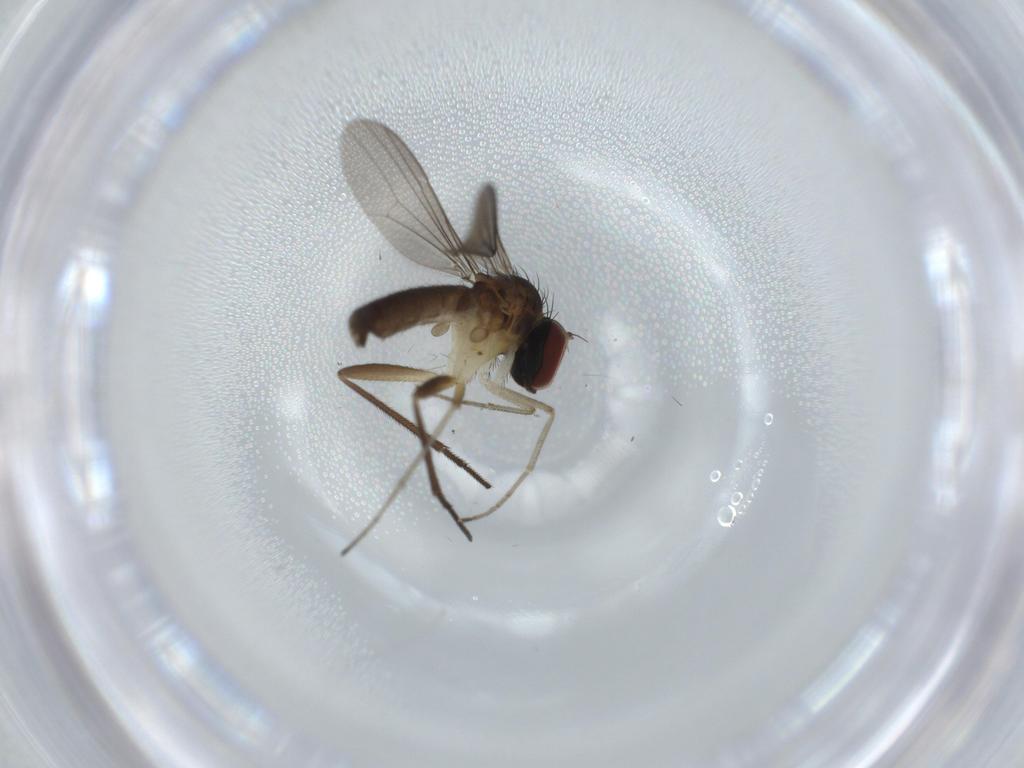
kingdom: Animalia
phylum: Arthropoda
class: Insecta
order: Diptera
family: Dolichopodidae
